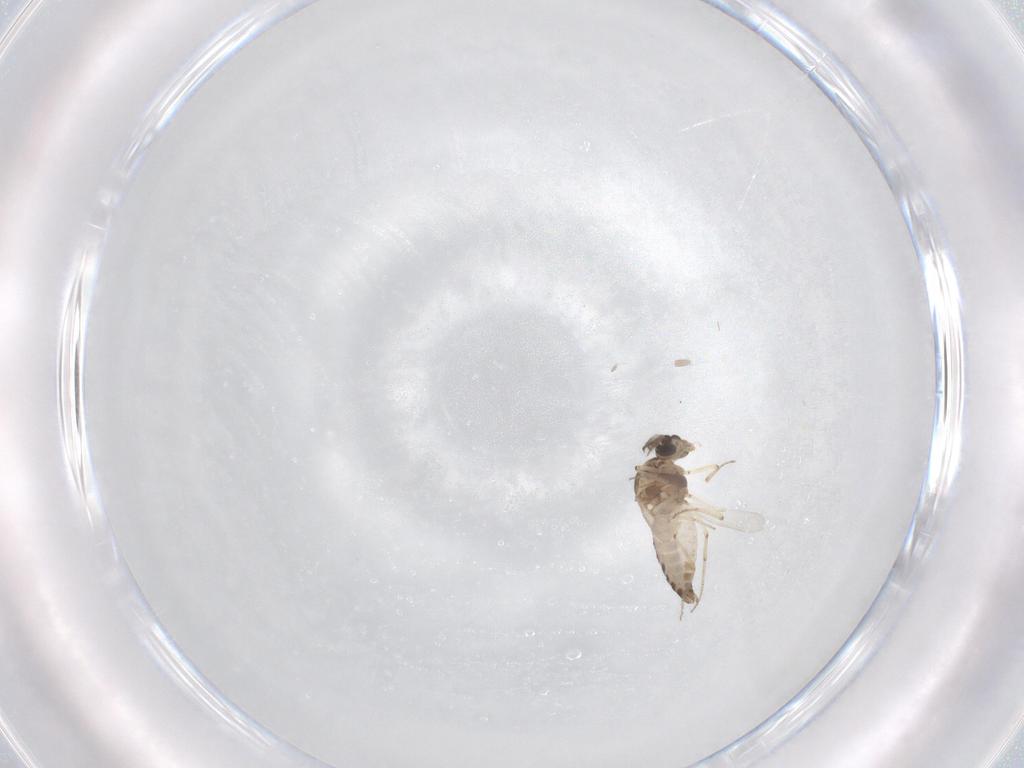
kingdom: Animalia
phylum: Arthropoda
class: Insecta
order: Diptera
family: Ceratopogonidae
